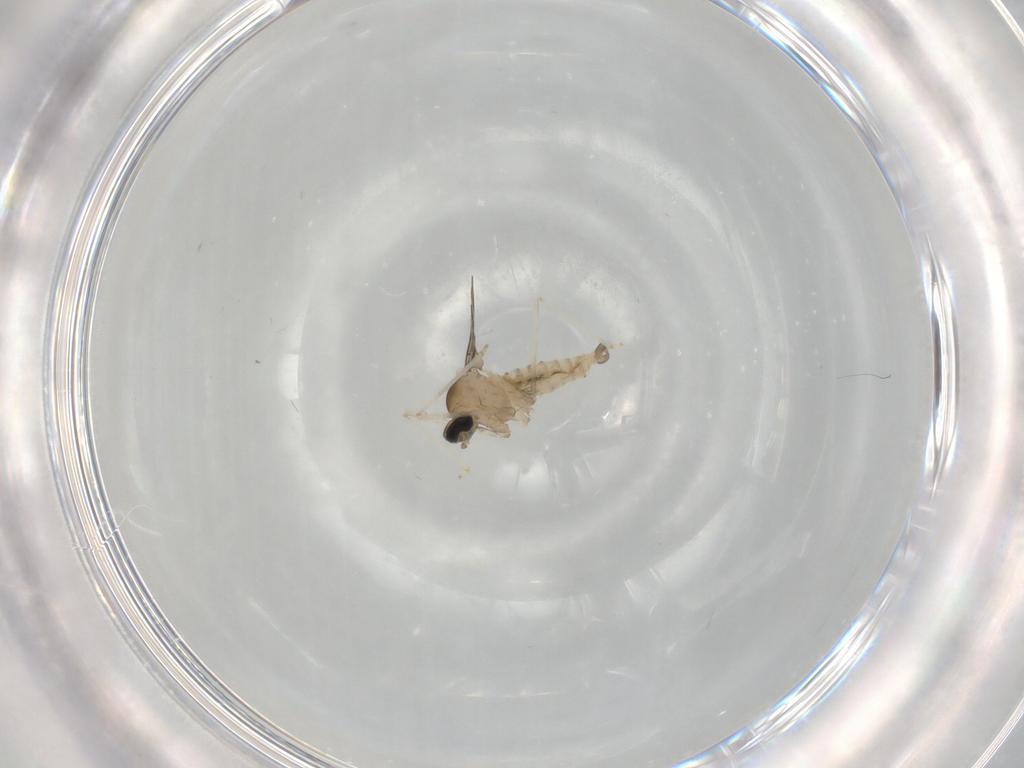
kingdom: Animalia
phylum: Arthropoda
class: Insecta
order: Diptera
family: Cecidomyiidae
